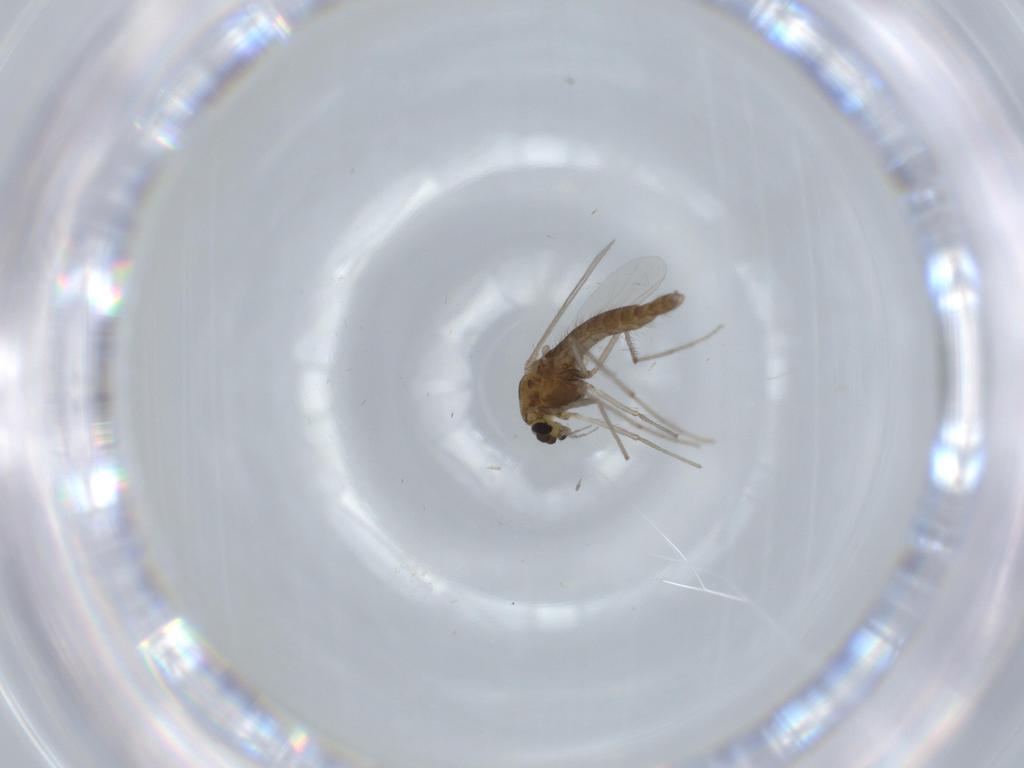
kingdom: Animalia
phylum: Arthropoda
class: Insecta
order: Diptera
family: Chironomidae
